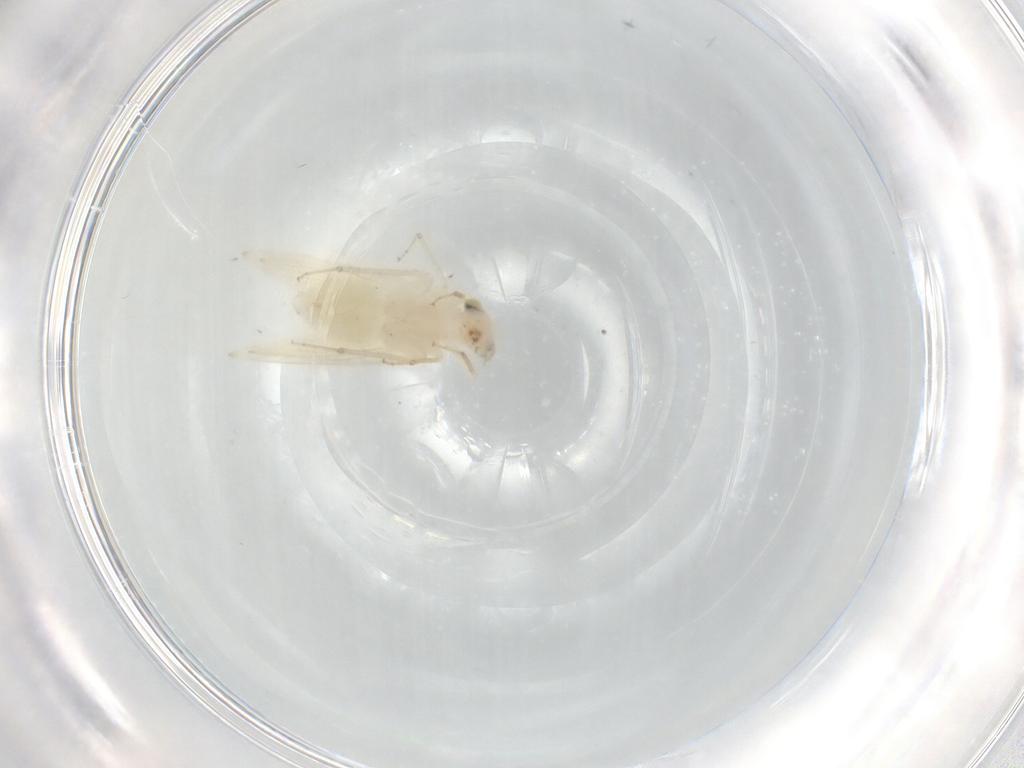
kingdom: Animalia
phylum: Arthropoda
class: Insecta
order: Psocodea
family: Lepidopsocidae
